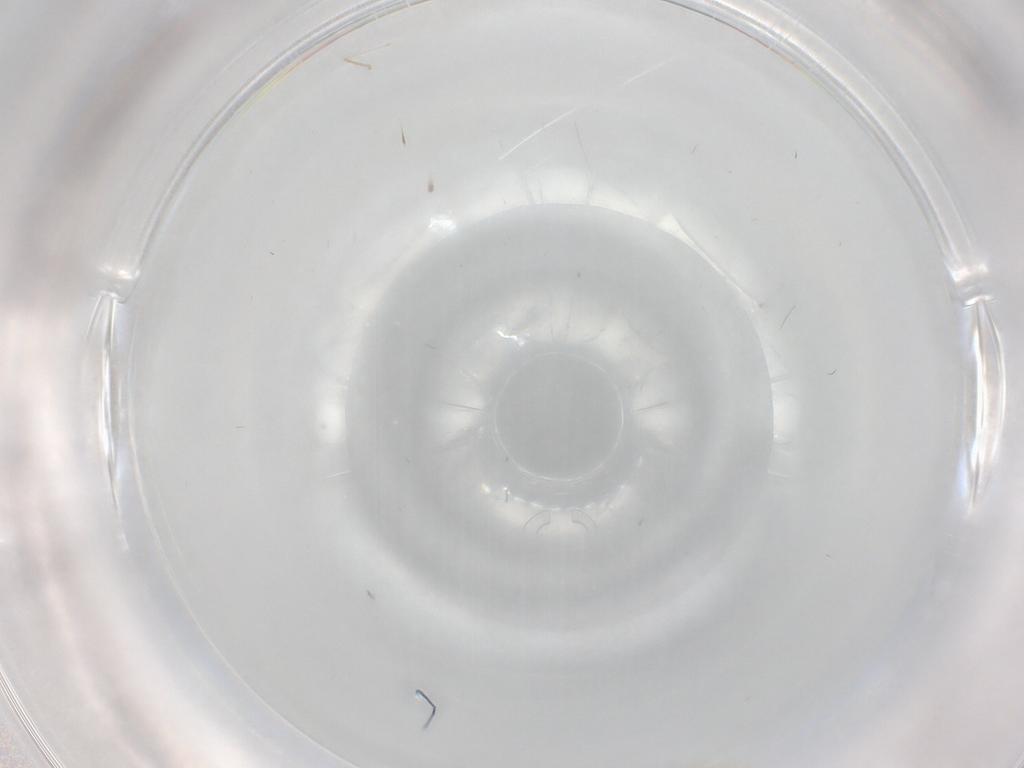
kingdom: Animalia
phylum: Arthropoda
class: Insecta
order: Diptera
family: Cecidomyiidae
